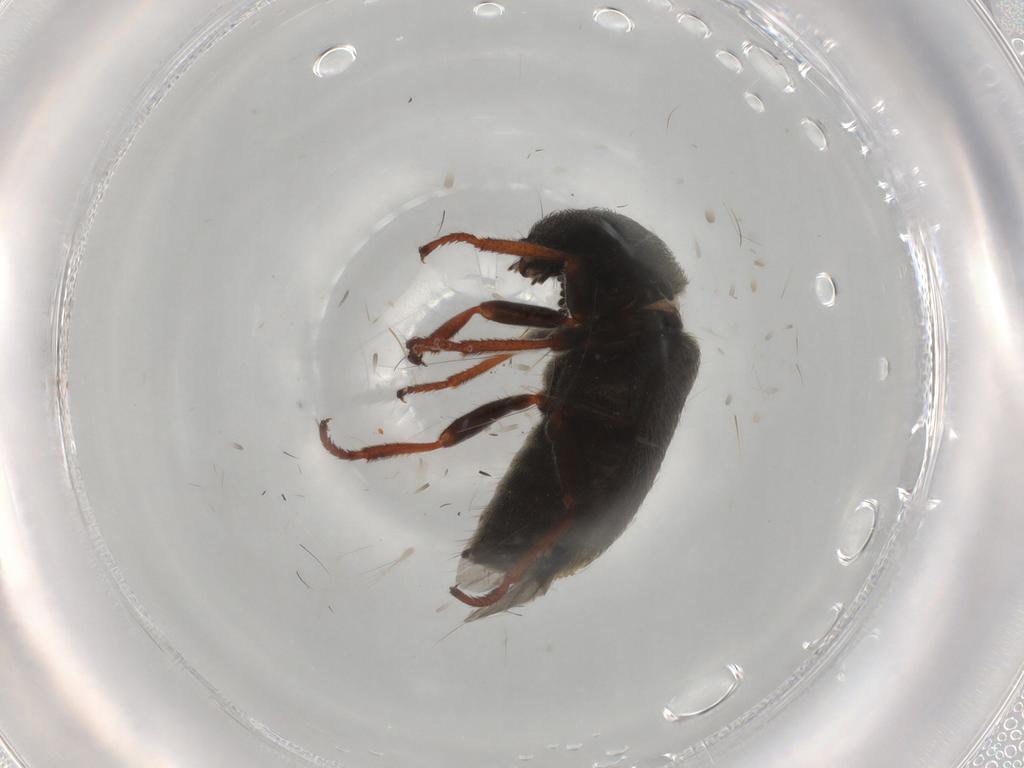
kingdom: Animalia
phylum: Arthropoda
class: Insecta
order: Coleoptera
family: Melyridae
